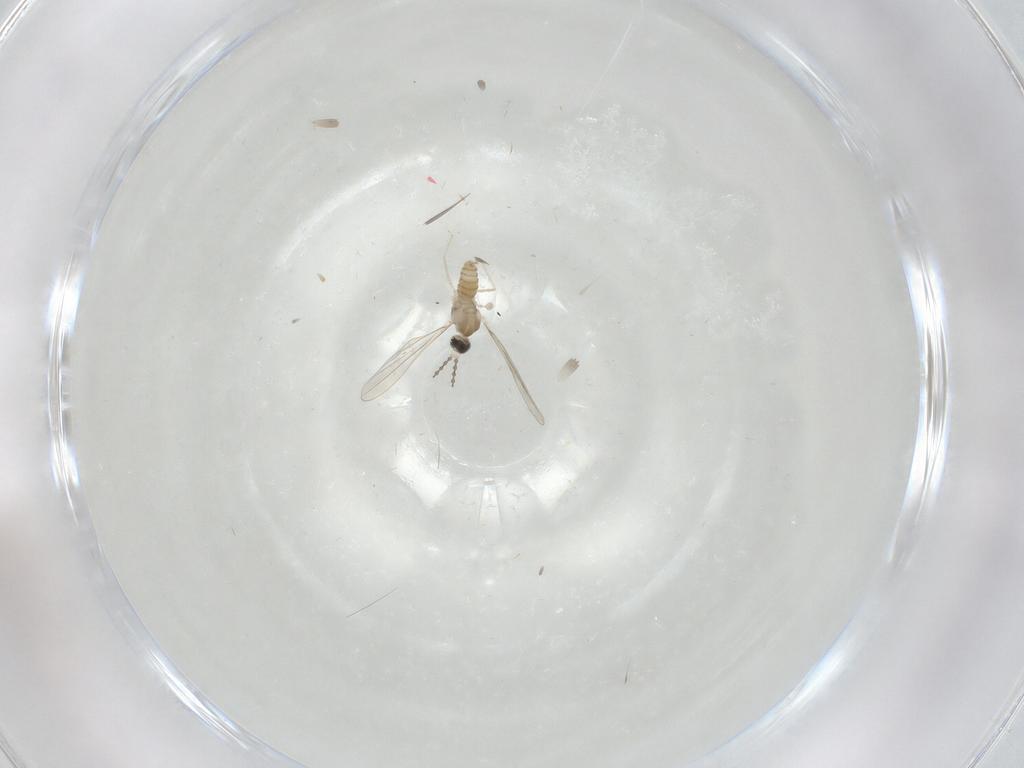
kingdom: Animalia
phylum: Arthropoda
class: Insecta
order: Diptera
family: Cecidomyiidae
